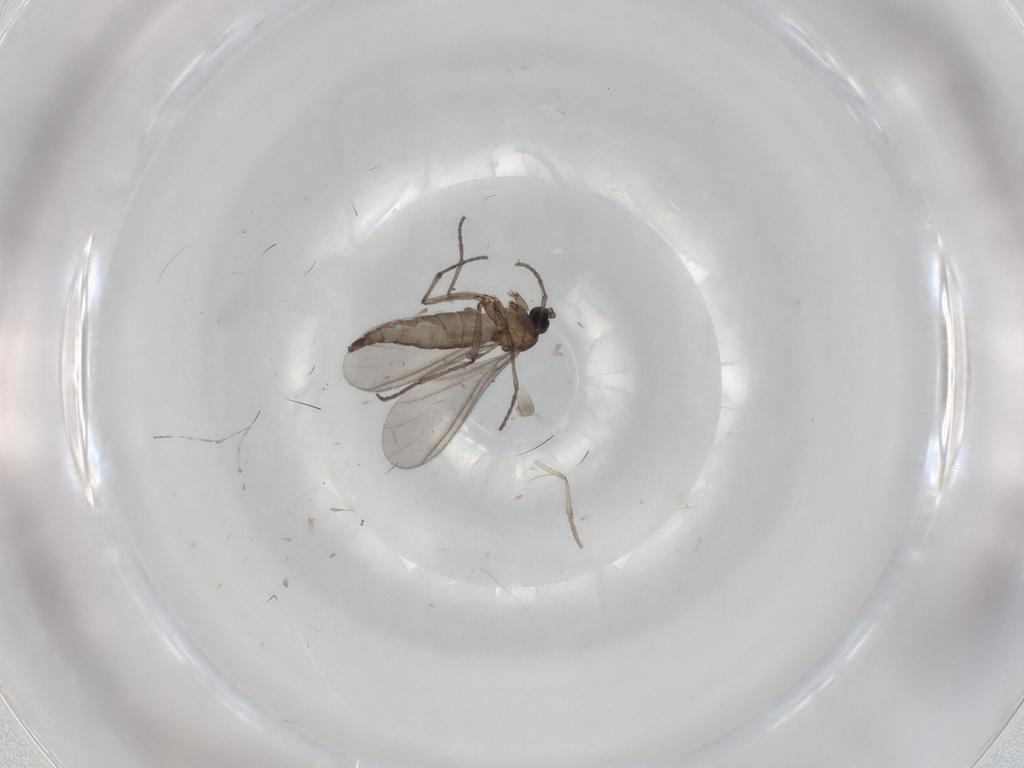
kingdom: Animalia
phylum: Arthropoda
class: Insecta
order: Diptera
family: Sciaridae
